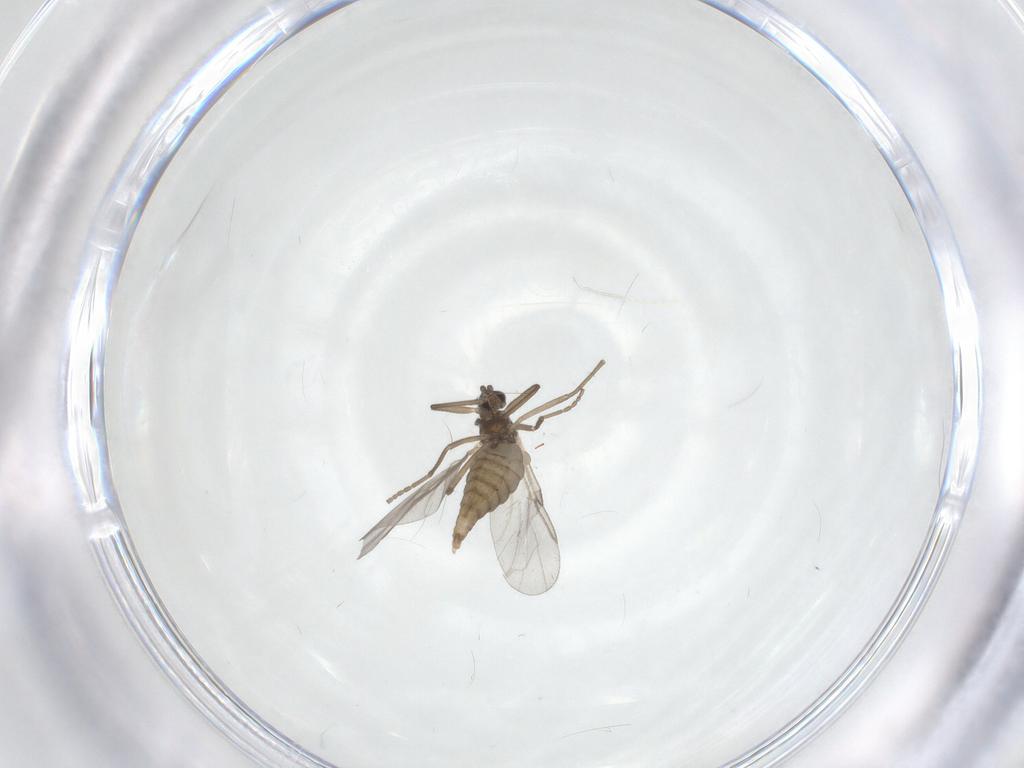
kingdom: Animalia
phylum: Arthropoda
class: Insecta
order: Diptera
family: Cecidomyiidae
